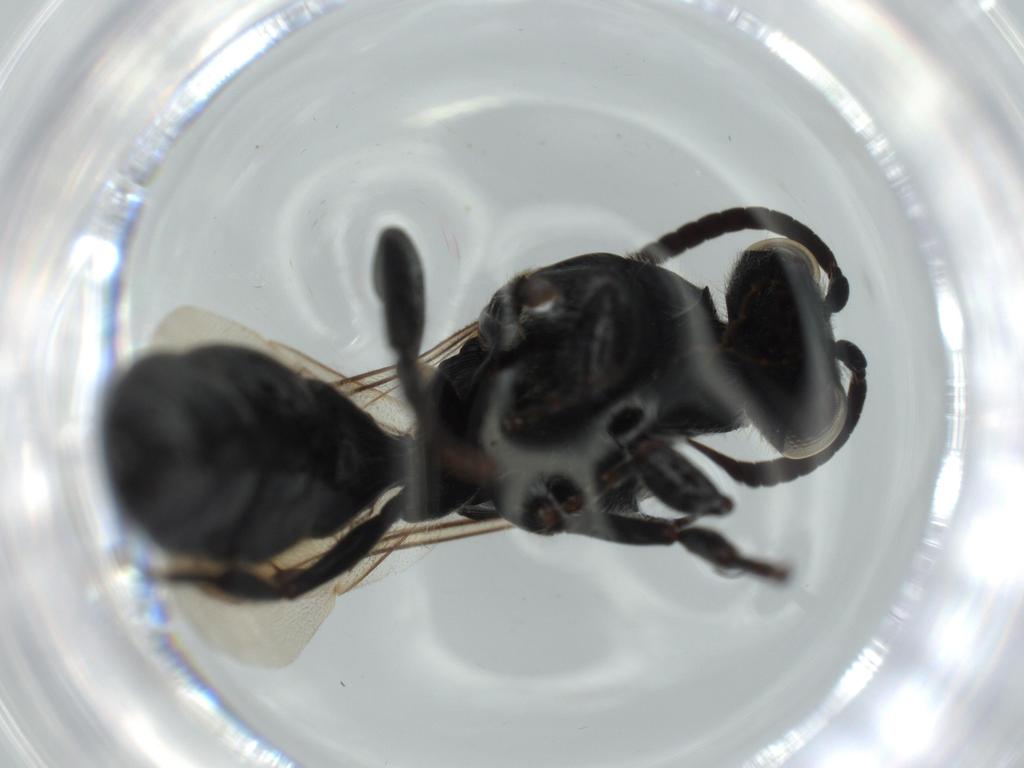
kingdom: Animalia
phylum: Arthropoda
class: Insecta
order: Hymenoptera
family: Tiphiidae
